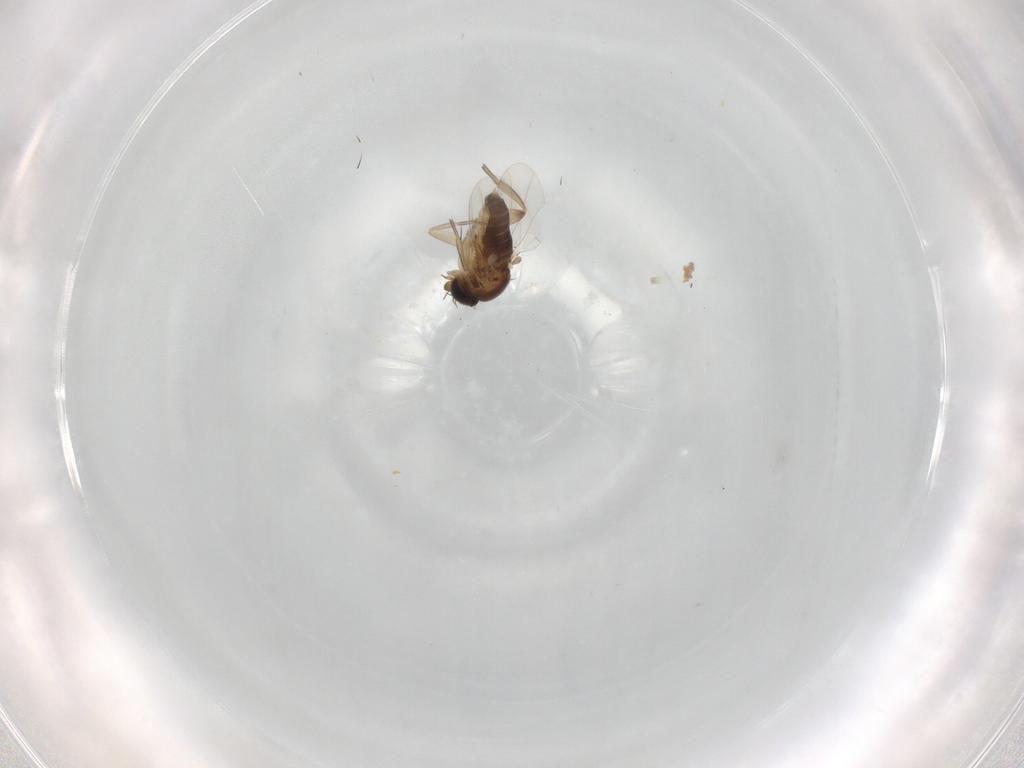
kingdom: Animalia
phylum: Arthropoda
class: Insecta
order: Diptera
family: Phoridae
